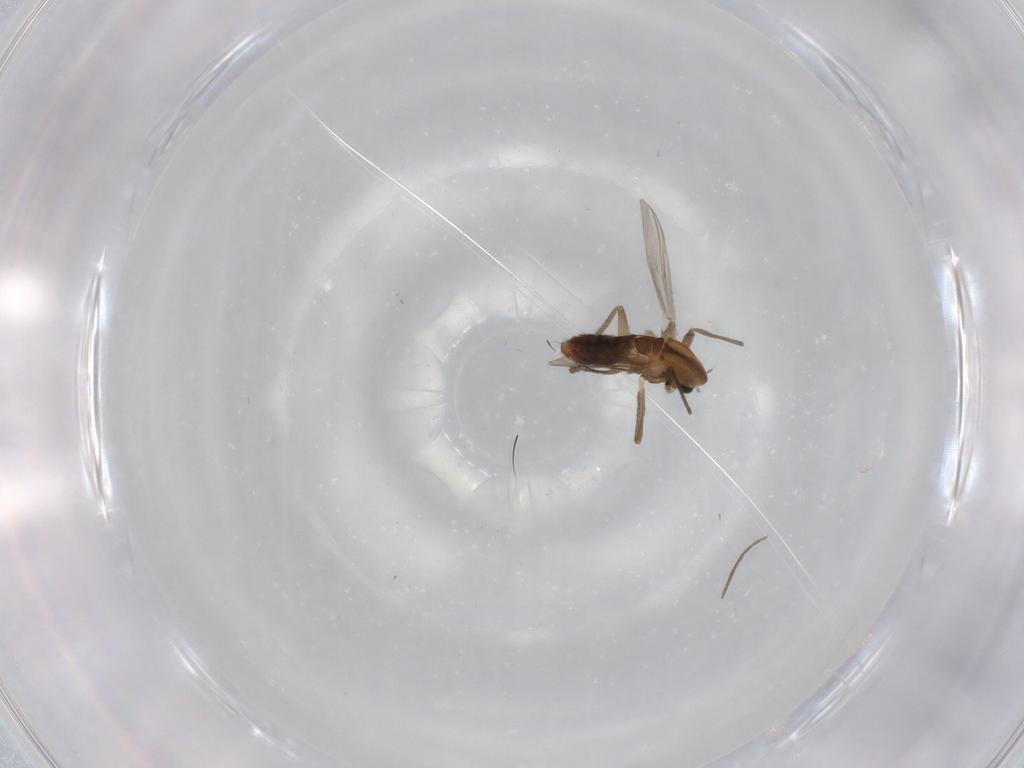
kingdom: Animalia
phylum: Arthropoda
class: Insecta
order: Diptera
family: Chironomidae
